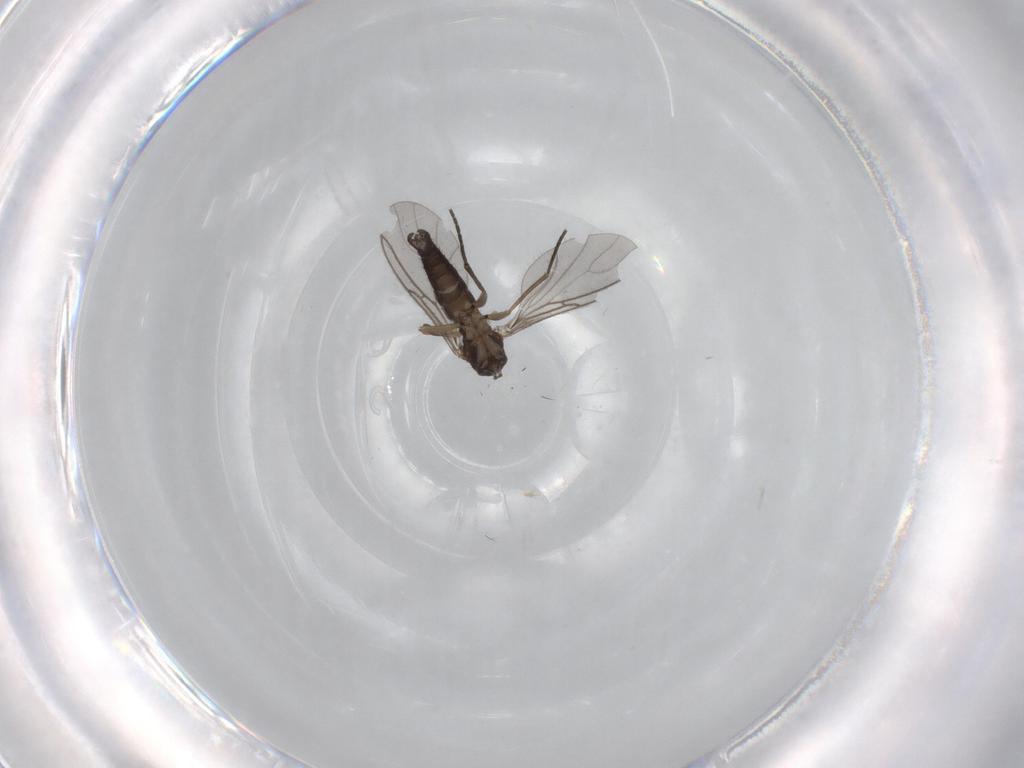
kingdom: Animalia
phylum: Arthropoda
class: Insecta
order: Diptera
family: Sciaridae
